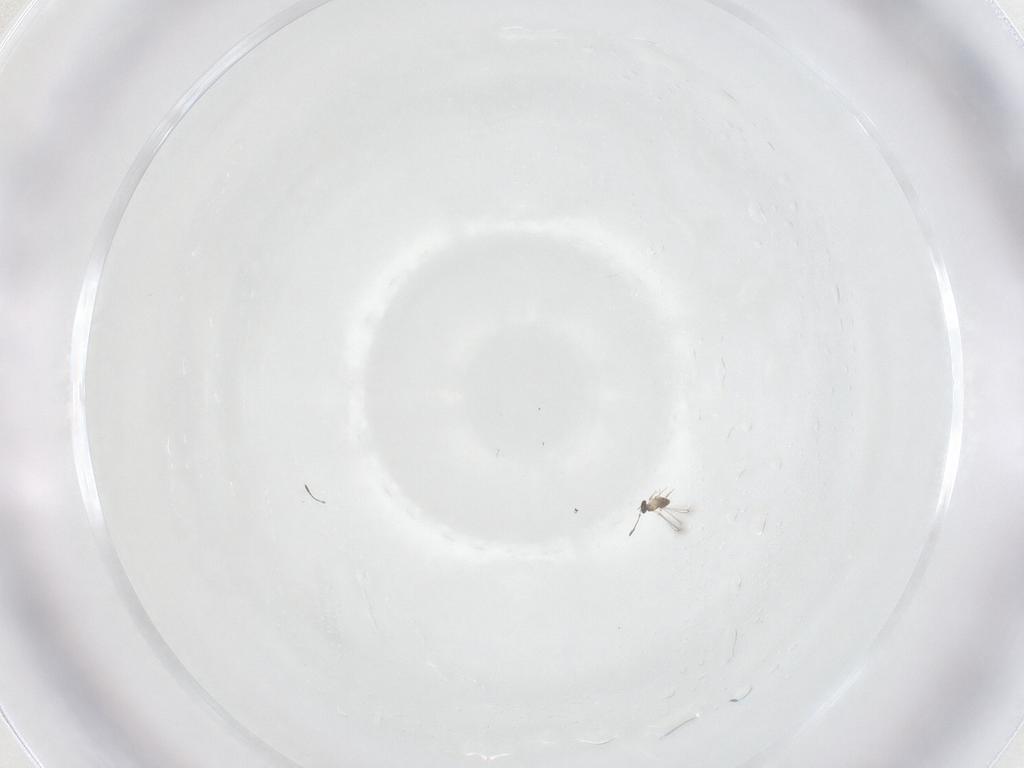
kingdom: Animalia
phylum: Arthropoda
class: Insecta
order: Hymenoptera
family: Mymaridae
